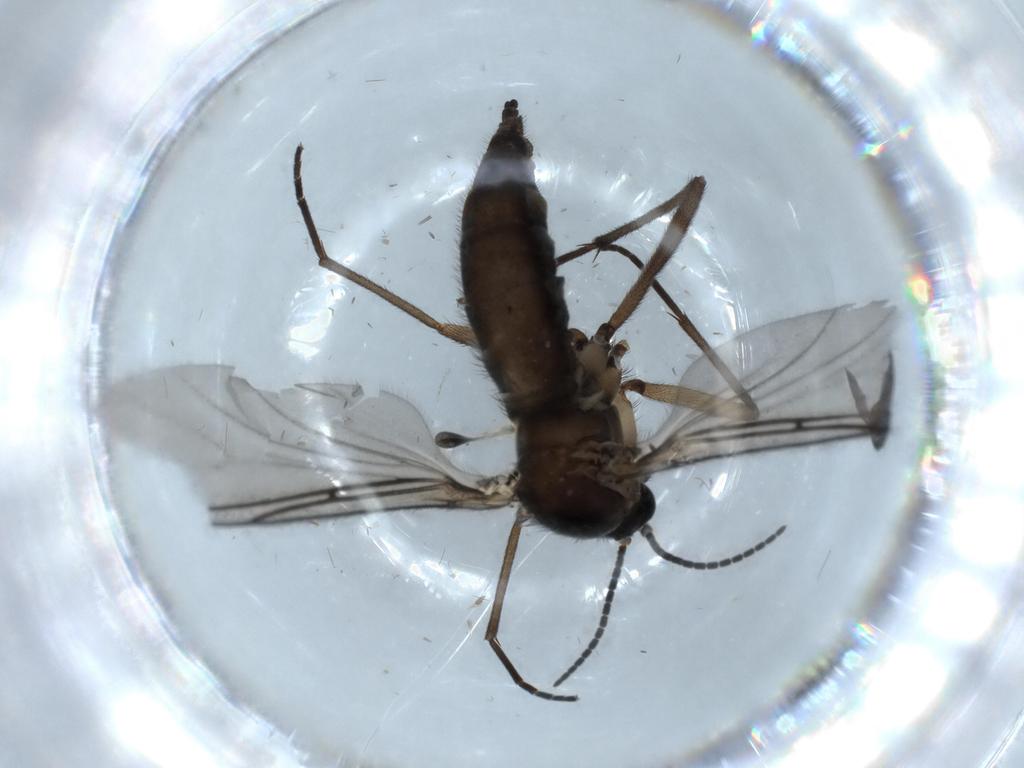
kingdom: Animalia
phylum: Arthropoda
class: Insecta
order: Diptera
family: Sciaridae
